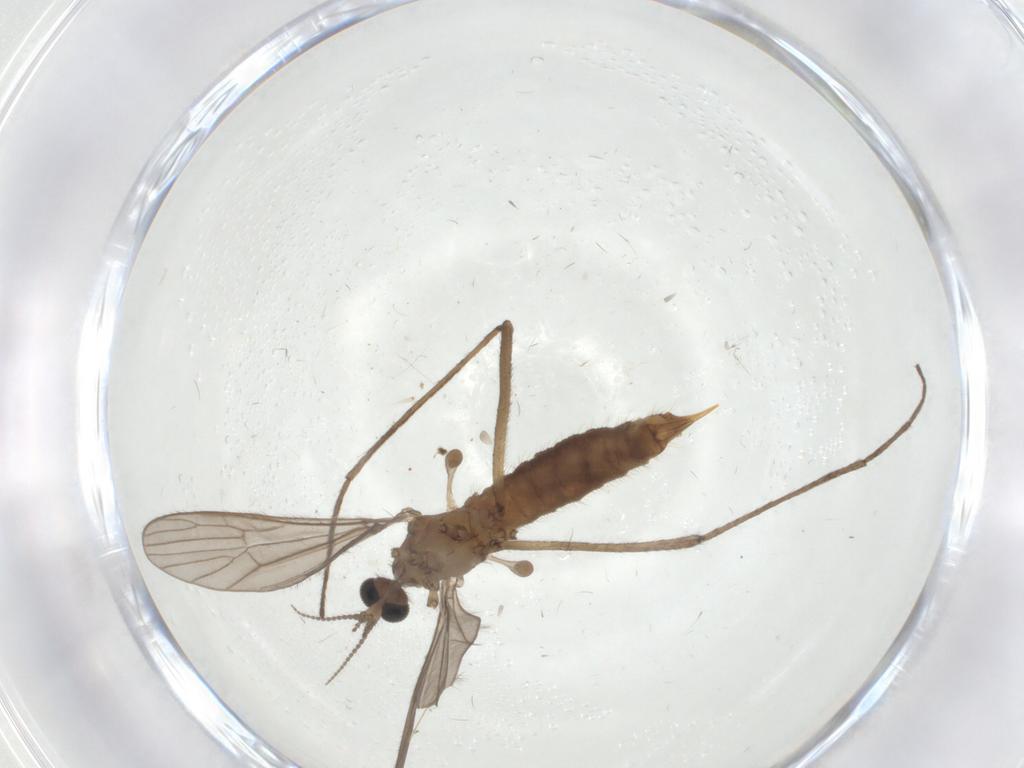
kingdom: Animalia
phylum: Arthropoda
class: Insecta
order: Diptera
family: Limoniidae
